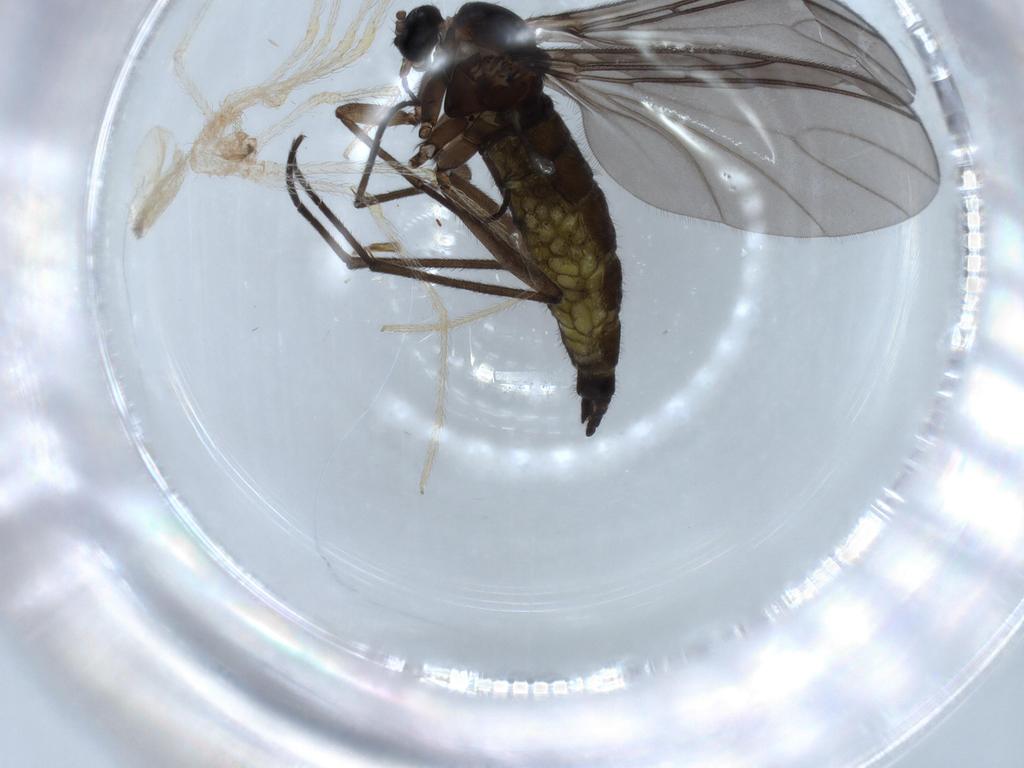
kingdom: Animalia
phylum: Arthropoda
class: Insecta
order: Diptera
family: Sciaridae
